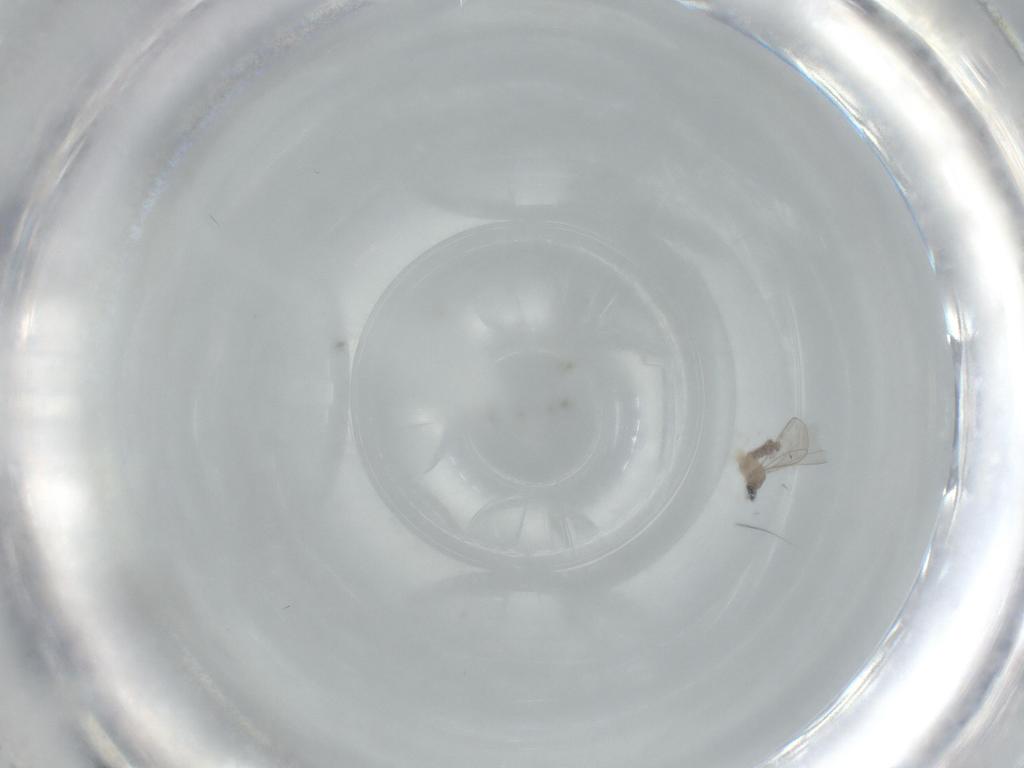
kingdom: Animalia
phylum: Arthropoda
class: Insecta
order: Diptera
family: Cecidomyiidae
